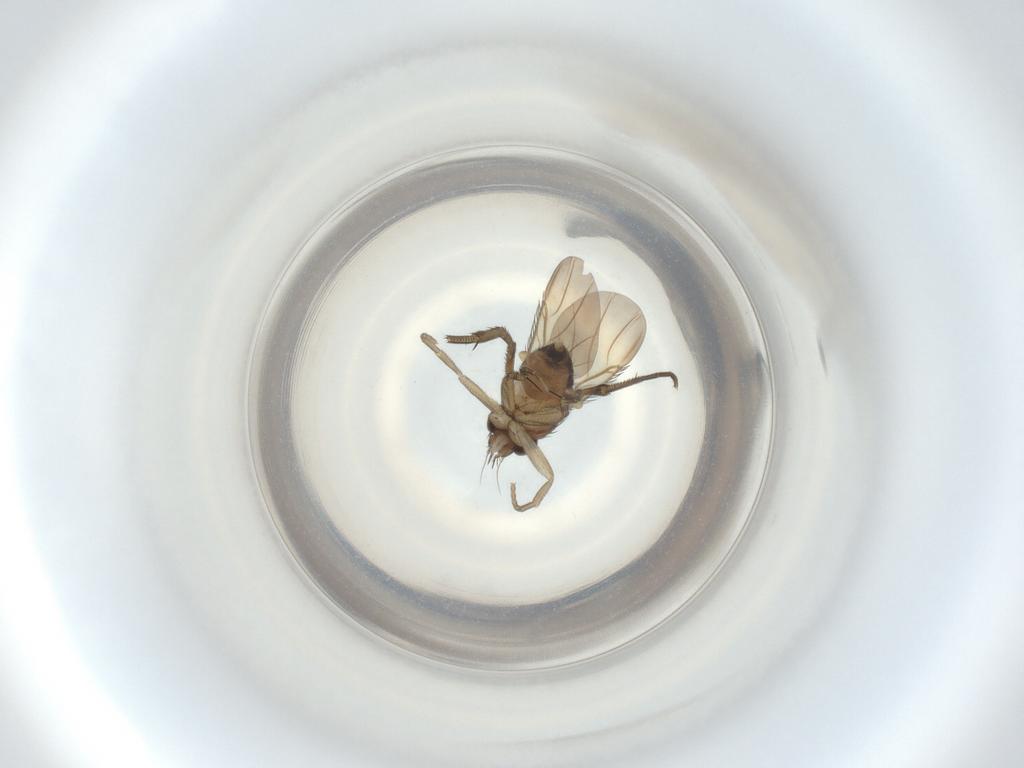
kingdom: Animalia
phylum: Arthropoda
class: Insecta
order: Diptera
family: Phoridae
